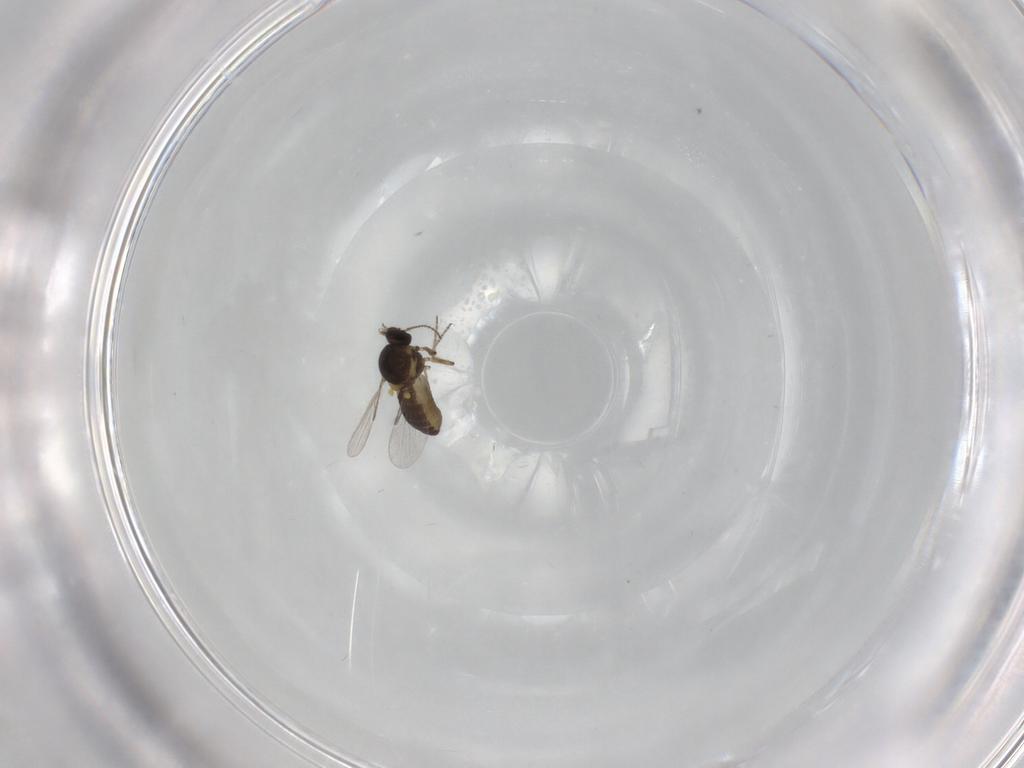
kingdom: Animalia
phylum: Arthropoda
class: Insecta
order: Diptera
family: Ceratopogonidae
